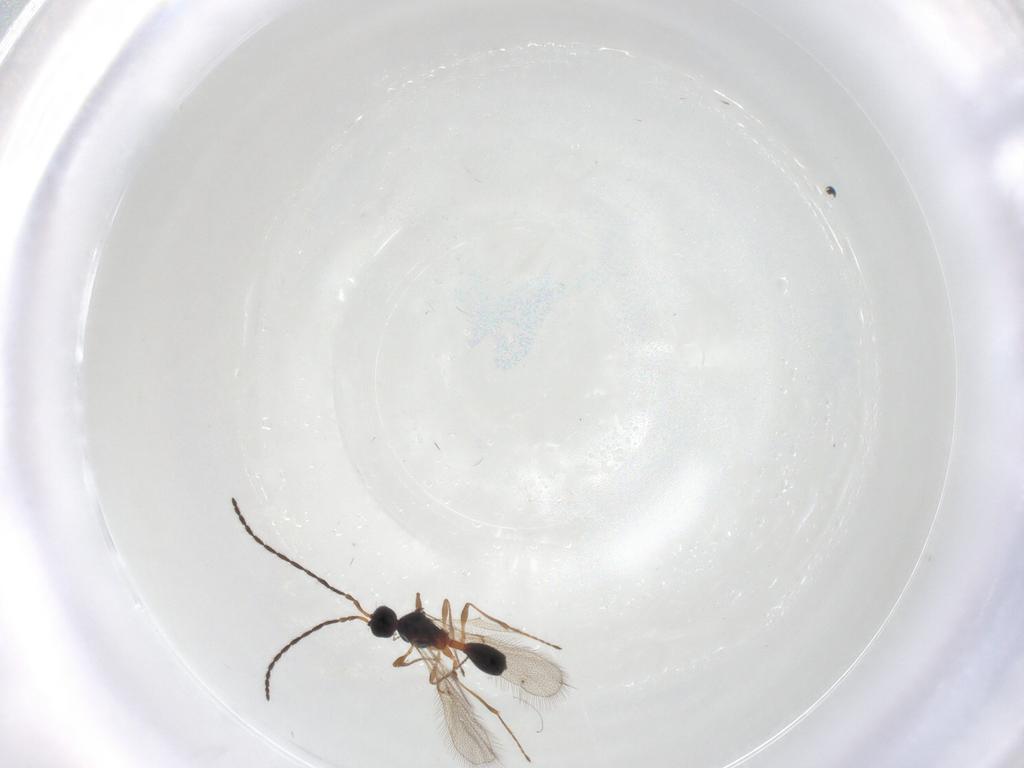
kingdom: Animalia
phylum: Arthropoda
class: Insecta
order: Hymenoptera
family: Diapriidae
